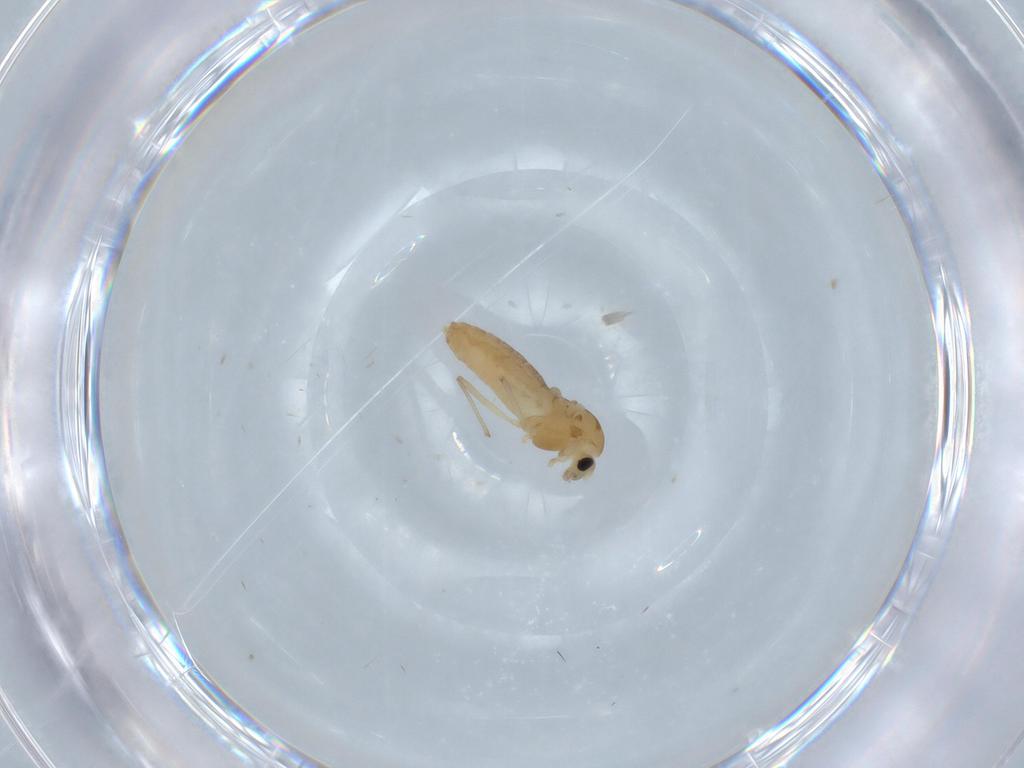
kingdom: Animalia
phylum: Arthropoda
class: Insecta
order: Diptera
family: Chironomidae
